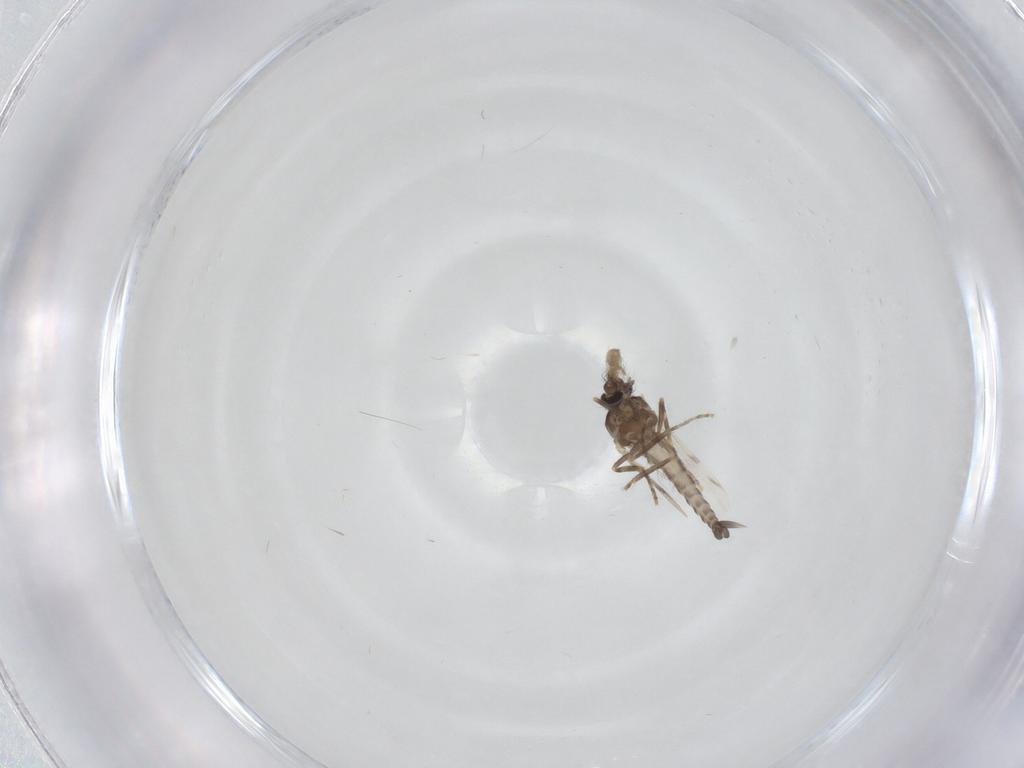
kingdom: Animalia
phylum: Arthropoda
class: Insecta
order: Diptera
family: Ceratopogonidae
